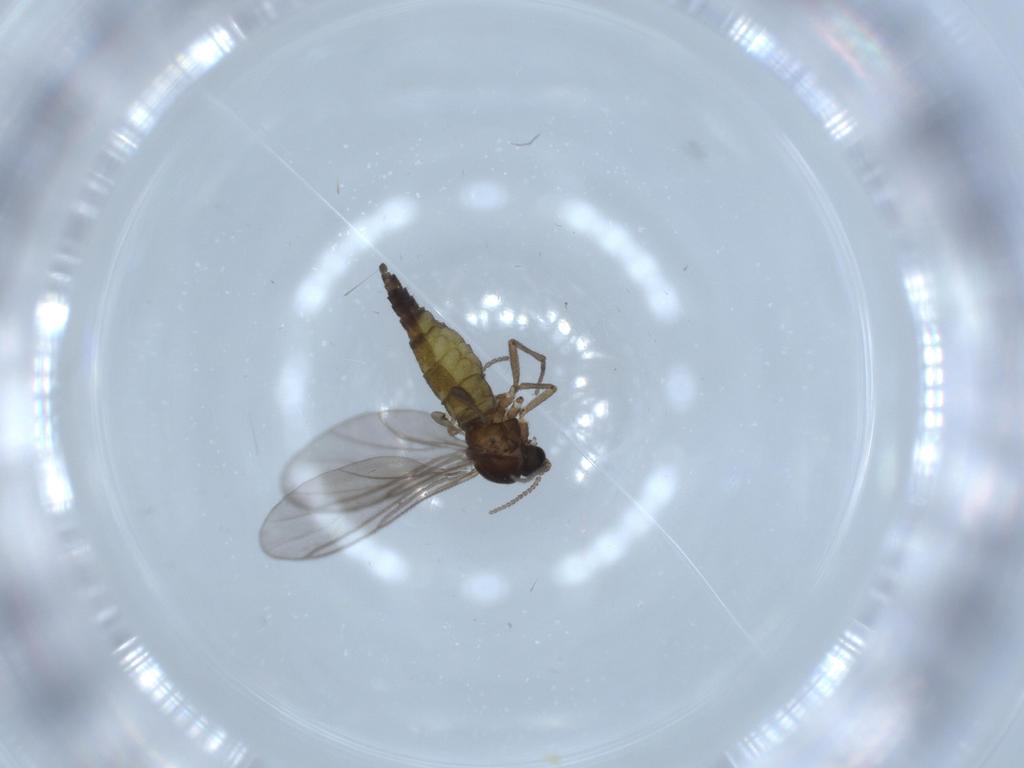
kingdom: Animalia
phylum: Arthropoda
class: Insecta
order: Diptera
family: Sciaridae
